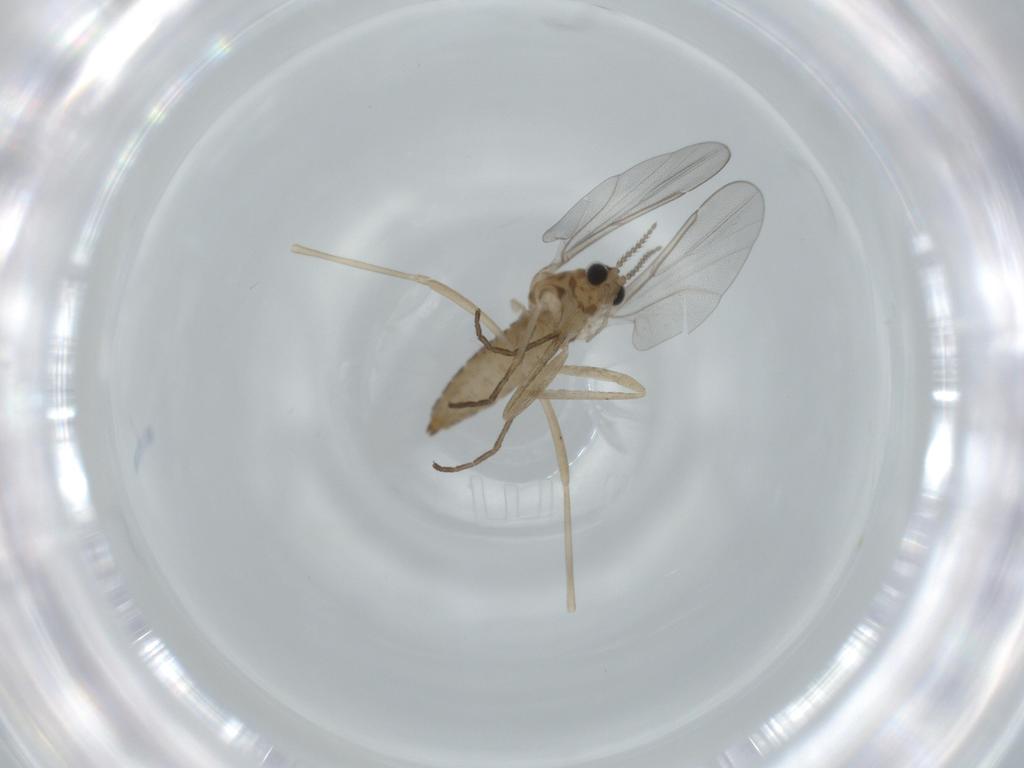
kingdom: Animalia
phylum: Arthropoda
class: Insecta
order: Diptera
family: Cecidomyiidae
